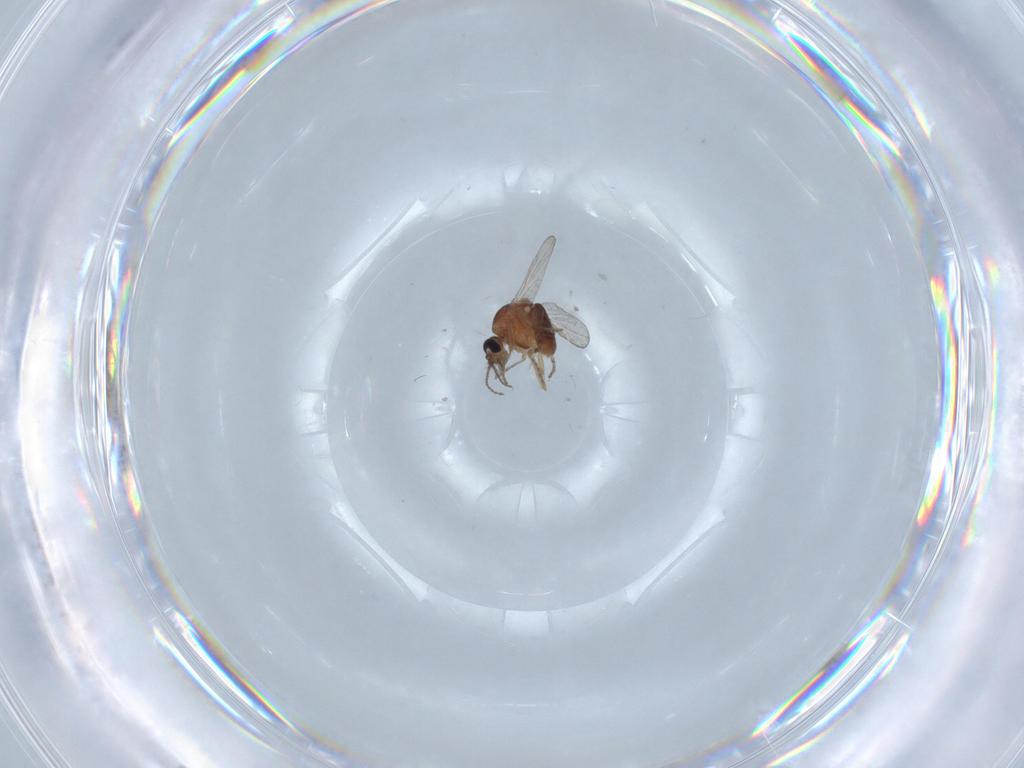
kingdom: Animalia
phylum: Arthropoda
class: Insecta
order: Diptera
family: Ceratopogonidae
